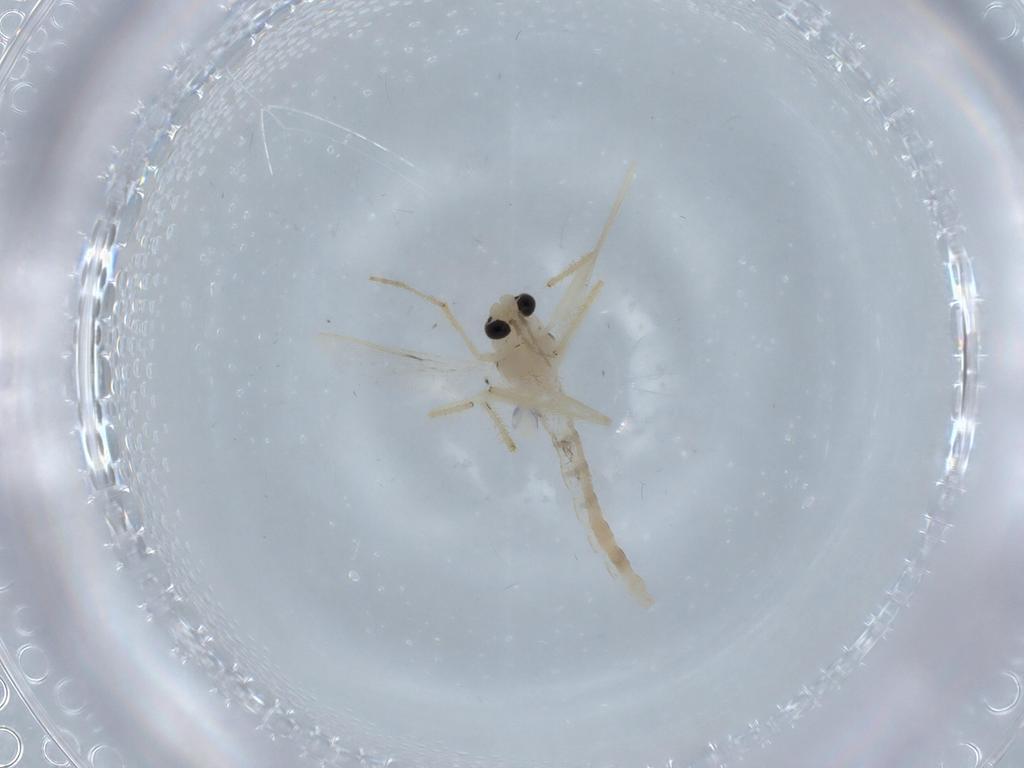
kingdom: Animalia
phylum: Arthropoda
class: Insecta
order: Diptera
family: Chironomidae
